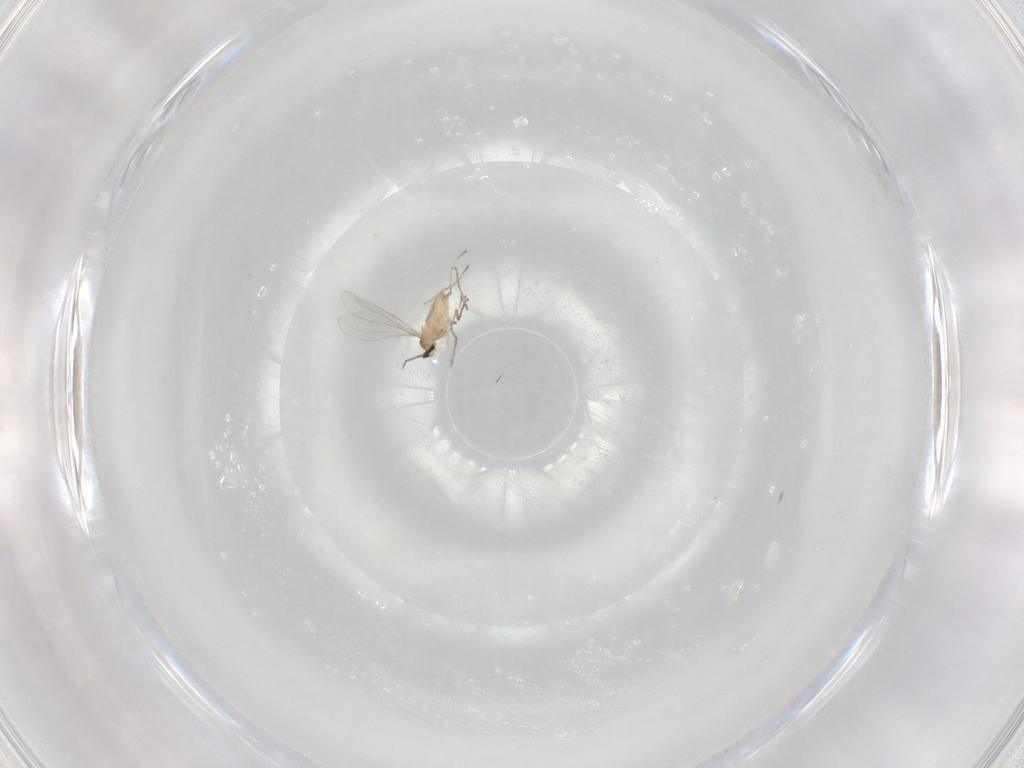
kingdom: Animalia
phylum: Arthropoda
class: Insecta
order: Diptera
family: Cecidomyiidae
